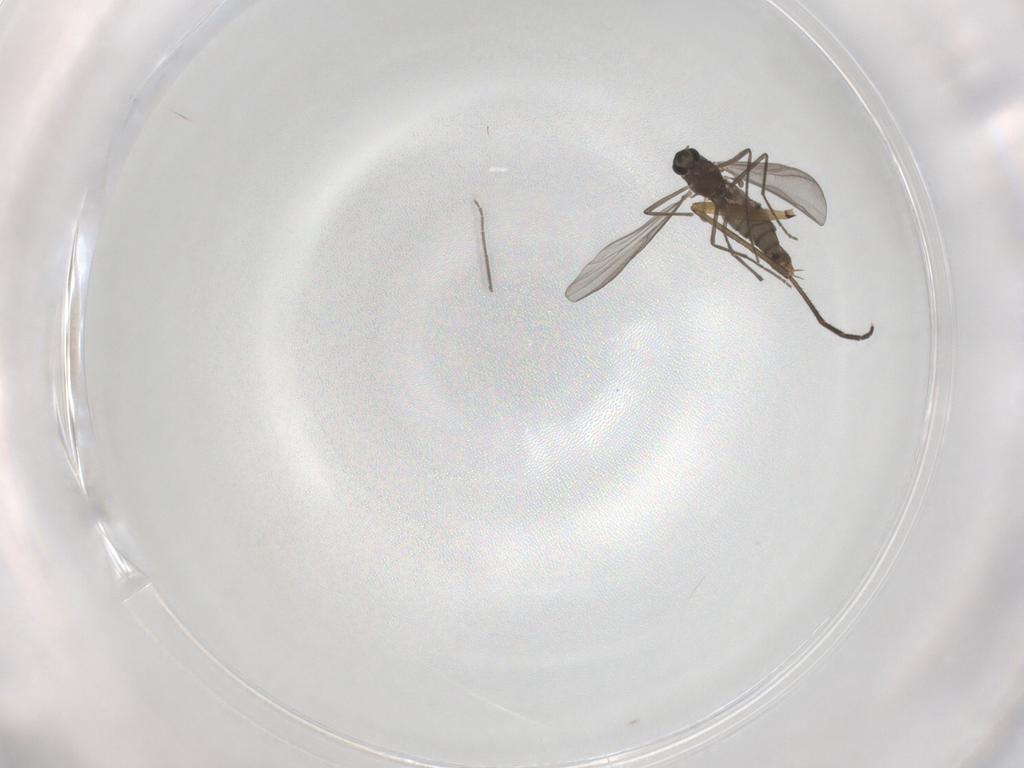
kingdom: Animalia
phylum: Arthropoda
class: Insecta
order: Diptera
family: Chironomidae
